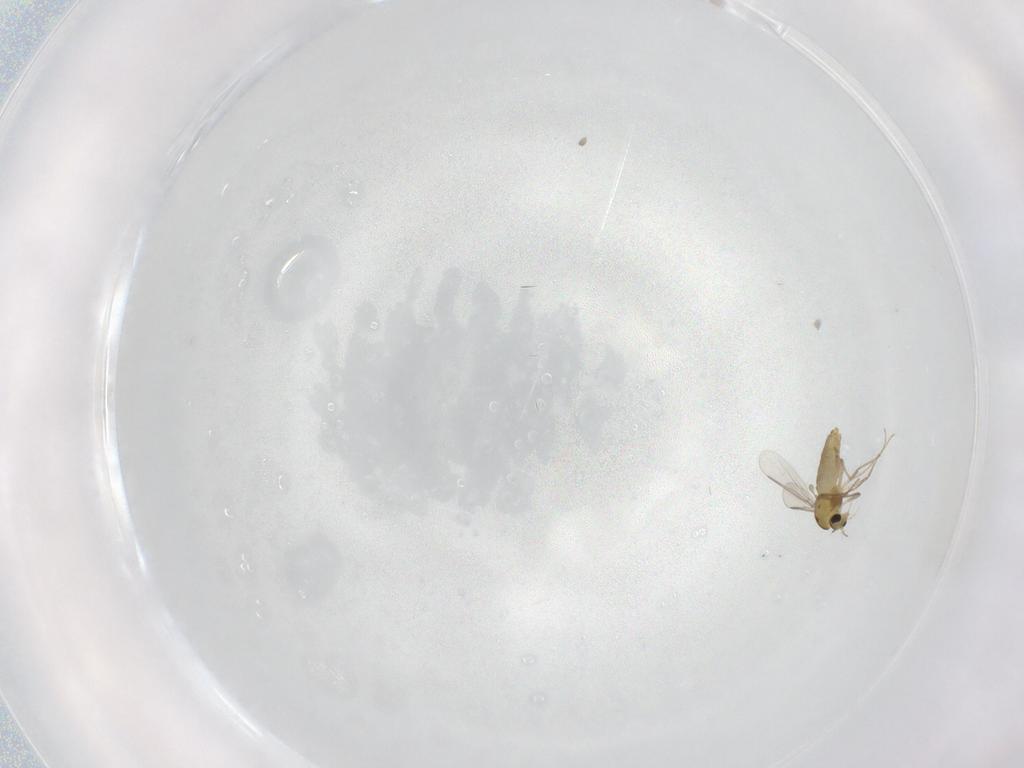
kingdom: Animalia
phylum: Arthropoda
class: Insecta
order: Diptera
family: Chironomidae
